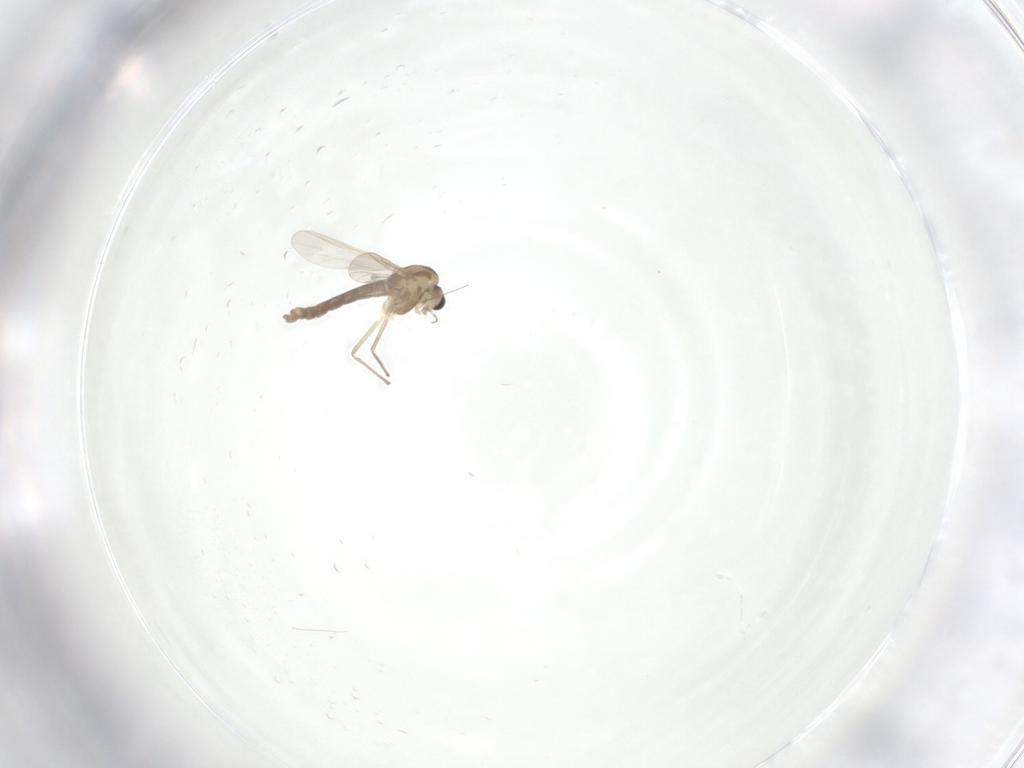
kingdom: Animalia
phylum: Arthropoda
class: Insecta
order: Diptera
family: Chironomidae
